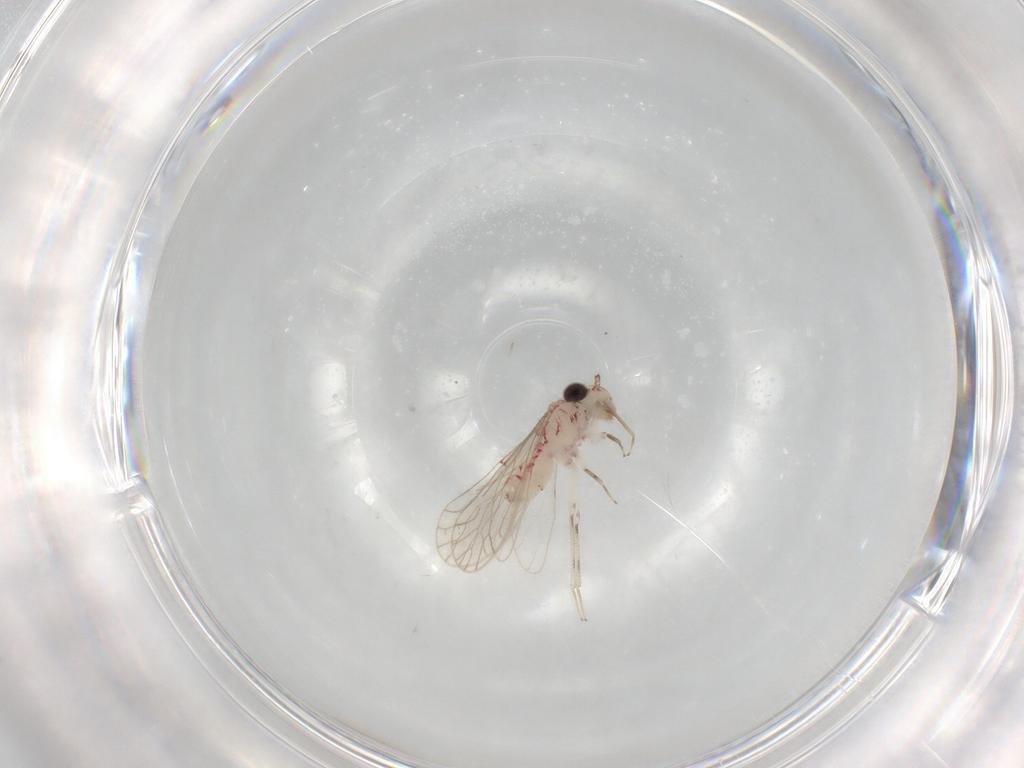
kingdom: Animalia
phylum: Arthropoda
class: Insecta
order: Psocodea
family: Caeciliusidae
